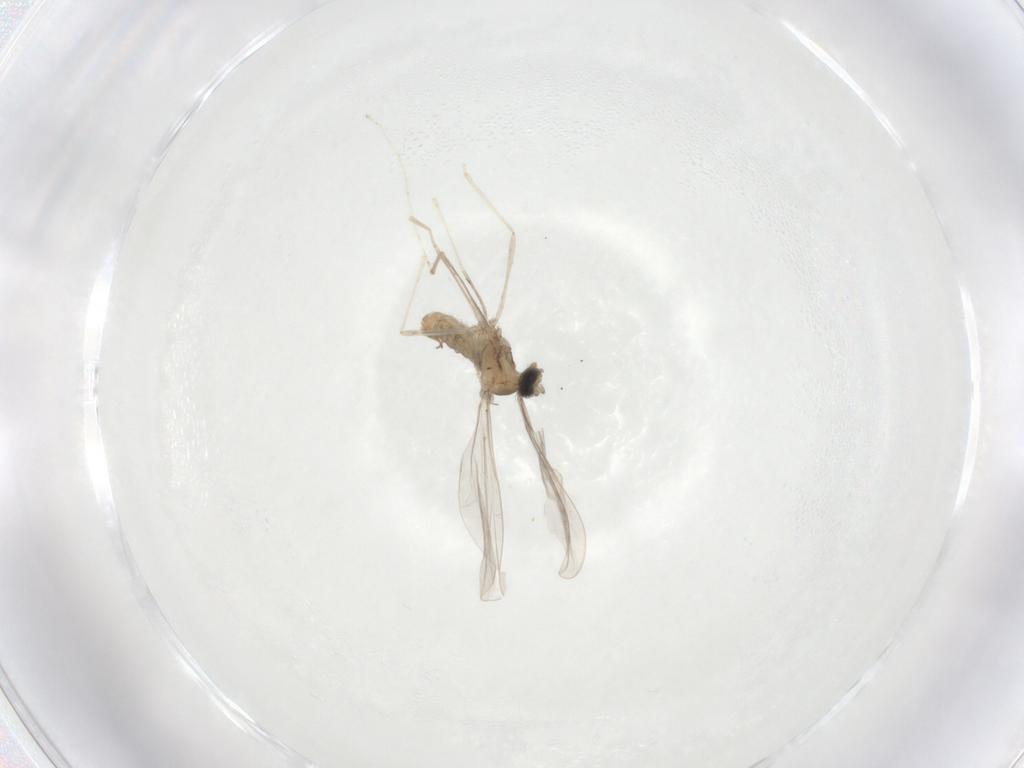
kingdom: Animalia
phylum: Arthropoda
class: Insecta
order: Diptera
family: Cecidomyiidae
